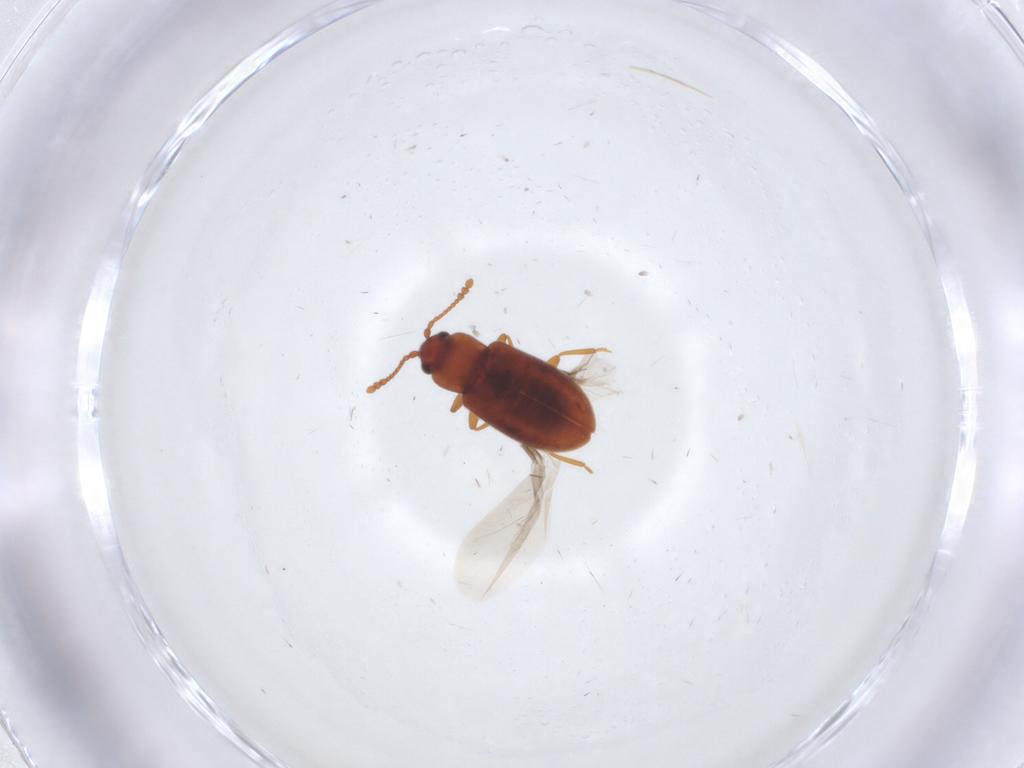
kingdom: Animalia
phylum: Arthropoda
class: Insecta
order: Coleoptera
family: Cryptophagidae
